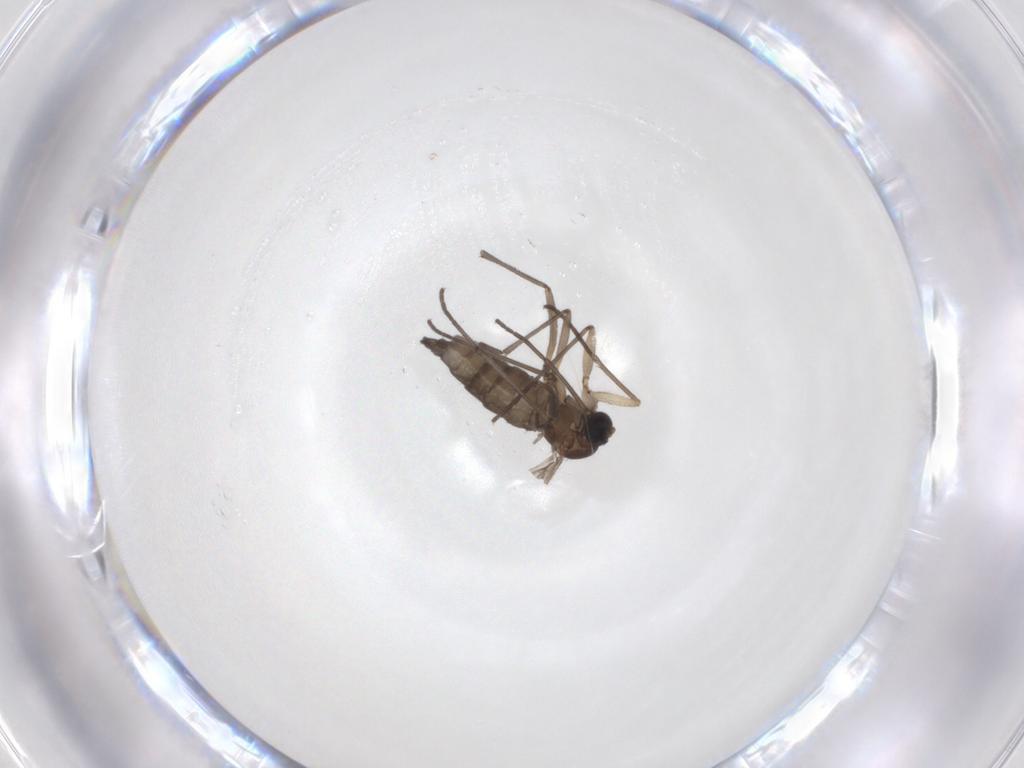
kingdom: Animalia
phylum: Arthropoda
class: Insecta
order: Diptera
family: Sciaridae
